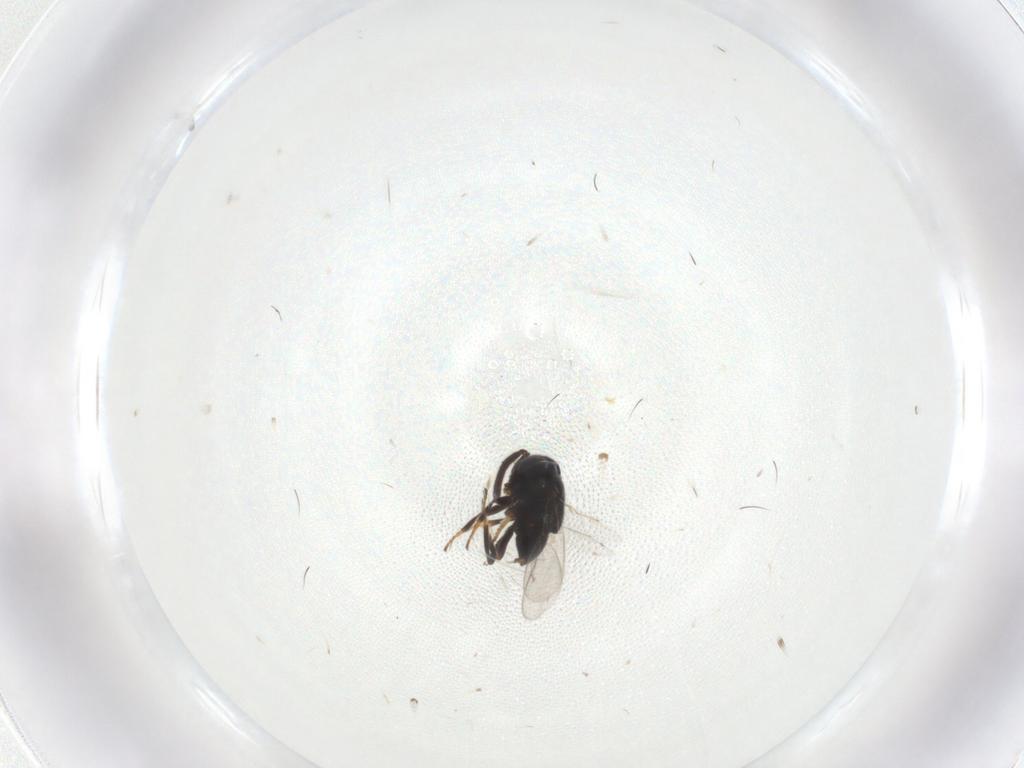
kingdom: Animalia
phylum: Arthropoda
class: Insecta
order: Hymenoptera
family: Encyrtidae
